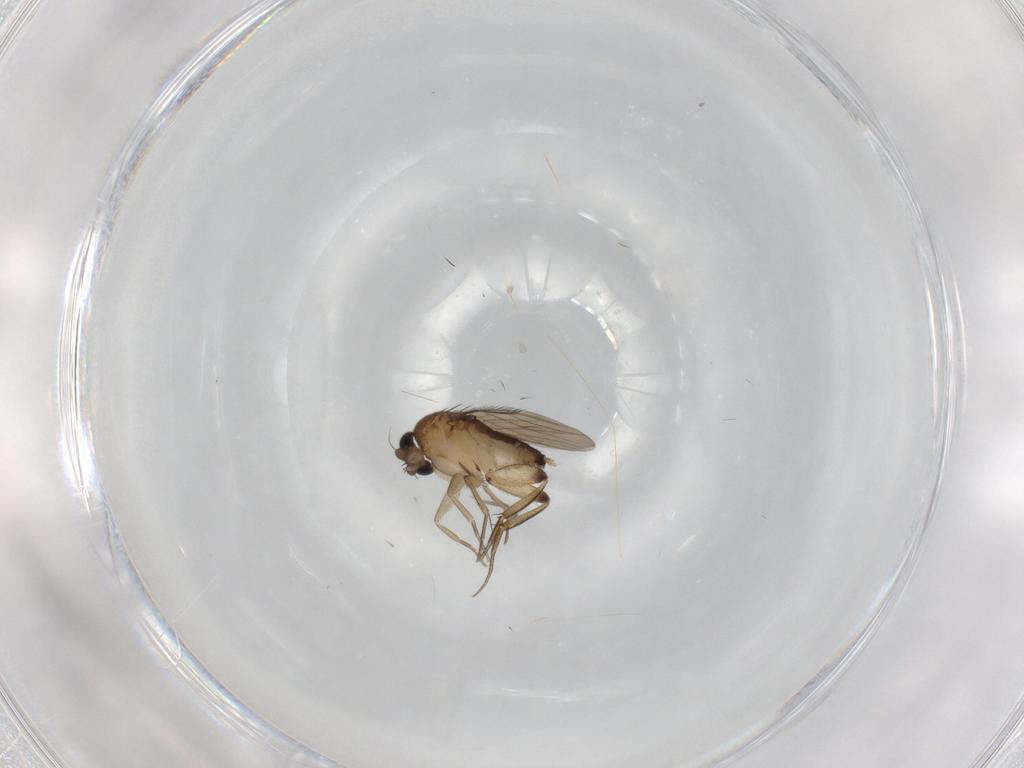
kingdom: Animalia
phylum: Arthropoda
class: Insecta
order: Diptera
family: Phoridae
